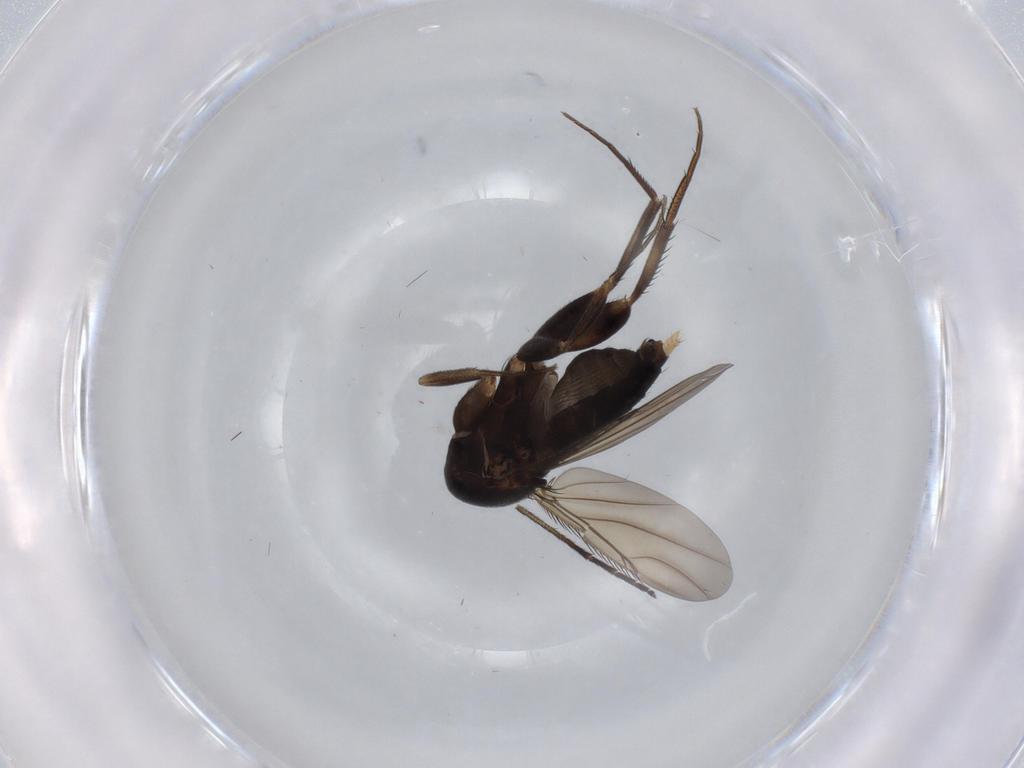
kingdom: Animalia
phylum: Arthropoda
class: Insecta
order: Diptera
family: Phoridae
